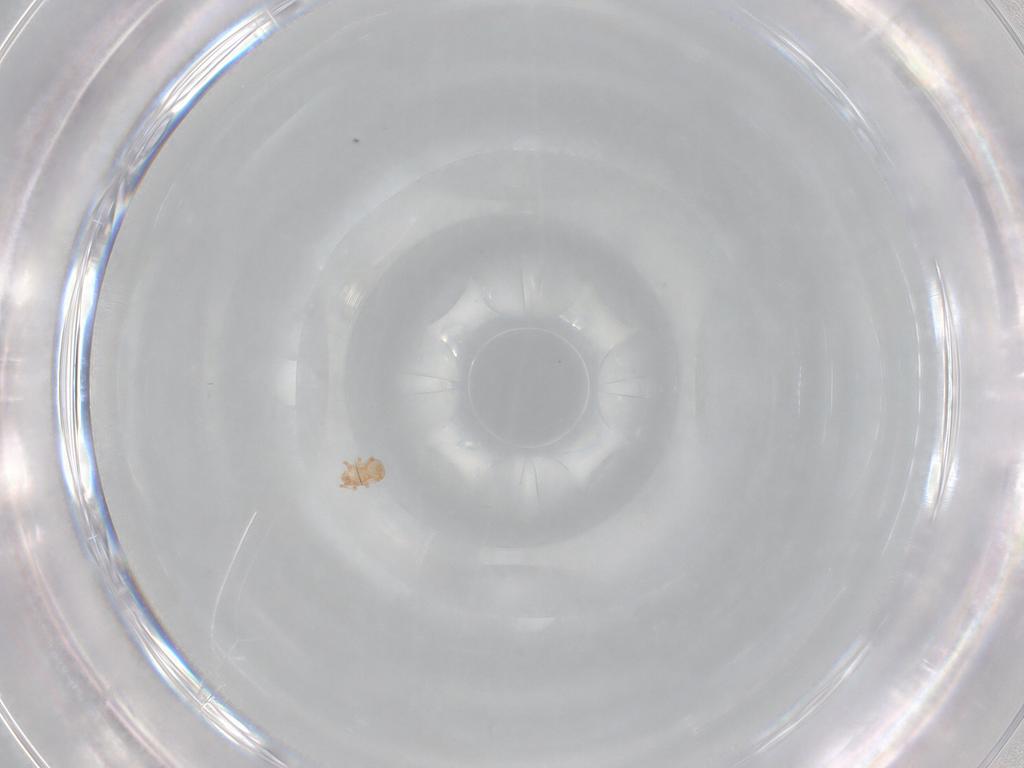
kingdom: Animalia
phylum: Arthropoda
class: Arachnida
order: Mesostigmata
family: Ascidae
